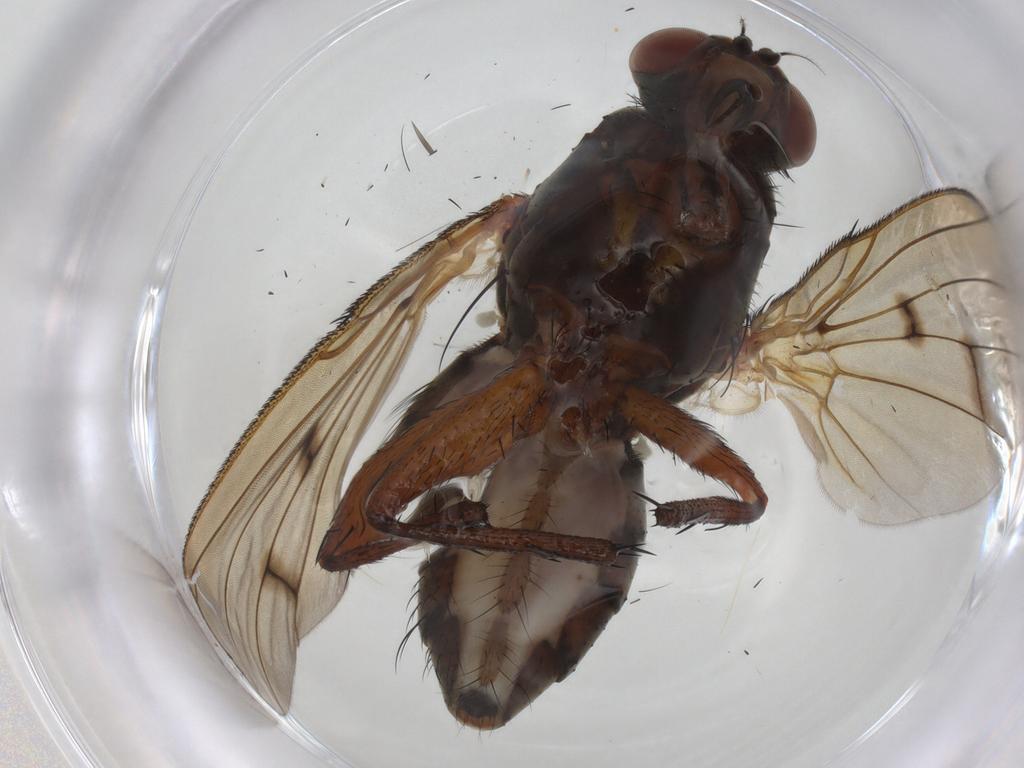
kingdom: Animalia
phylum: Arthropoda
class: Insecta
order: Diptera
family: Anthomyiidae
